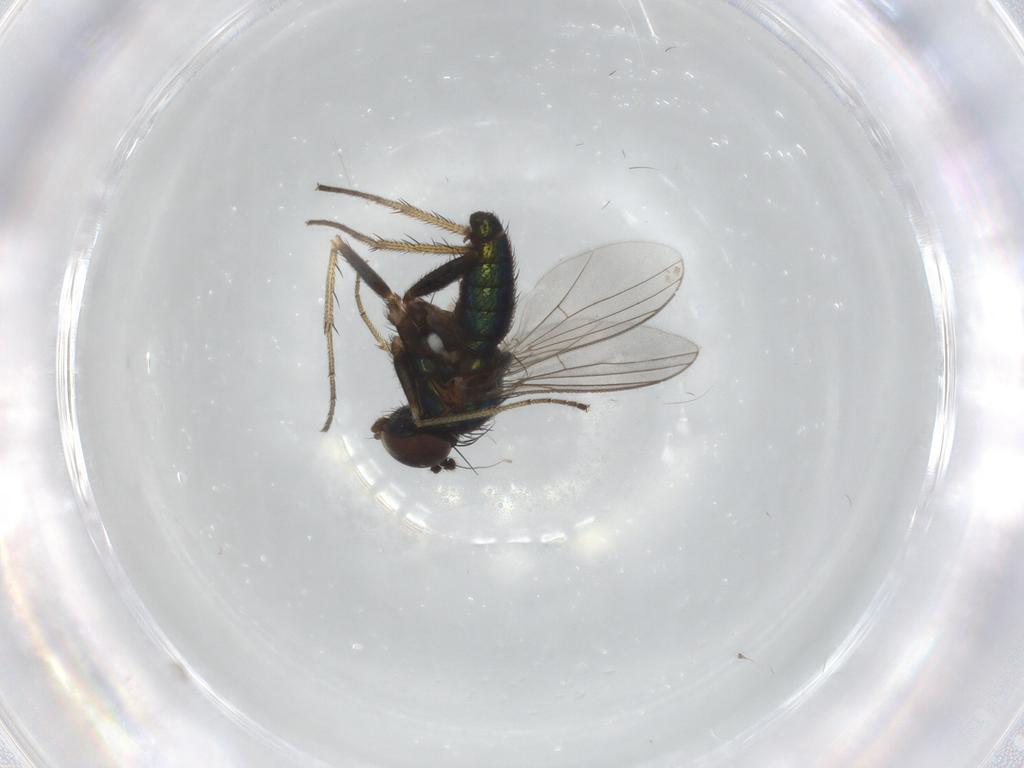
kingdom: Animalia
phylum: Arthropoda
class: Insecta
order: Diptera
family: Dolichopodidae
